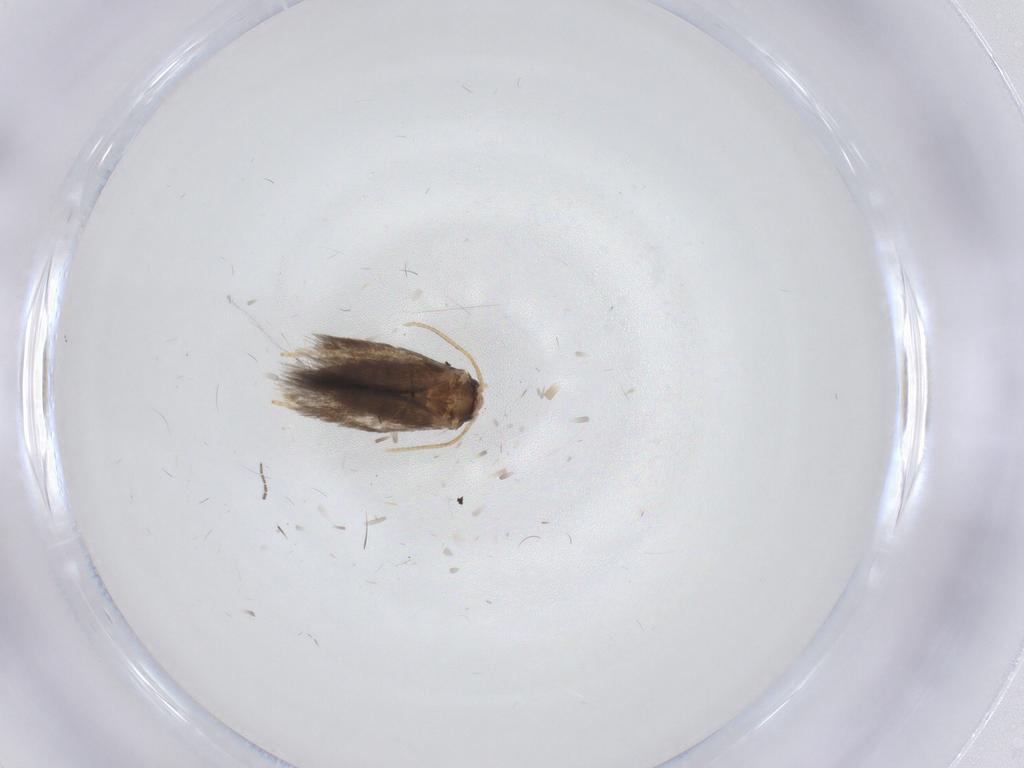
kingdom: Animalia
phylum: Arthropoda
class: Insecta
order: Lepidoptera
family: Nepticulidae
